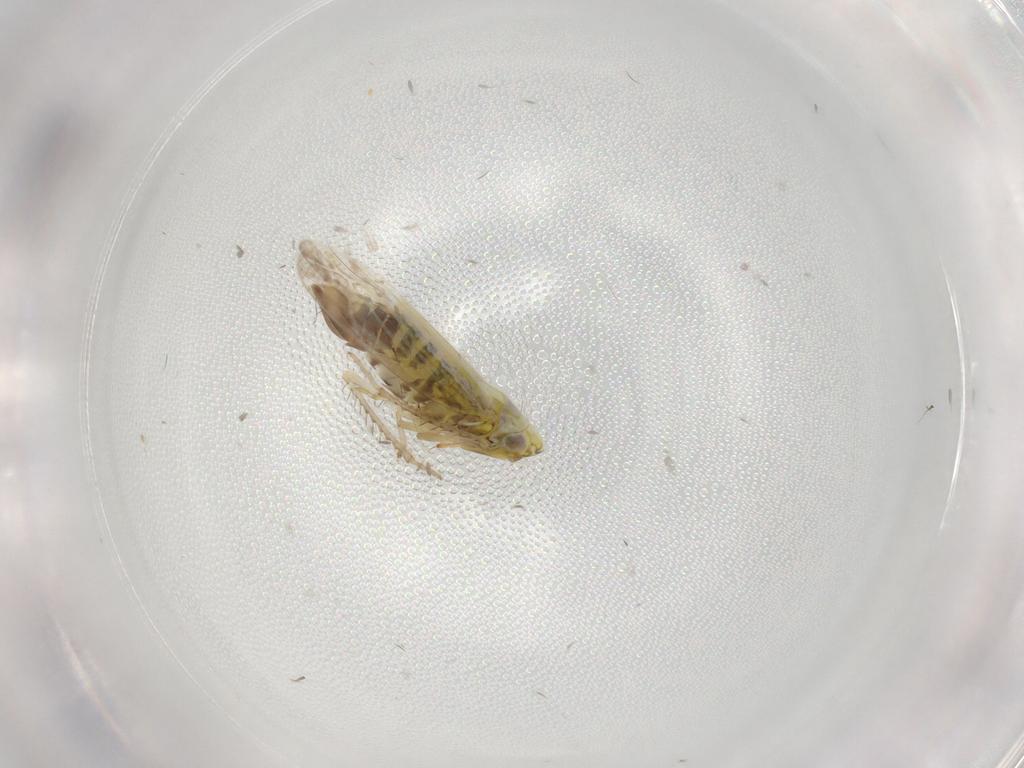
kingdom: Animalia
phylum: Arthropoda
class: Insecta
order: Hemiptera
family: Cicadellidae
